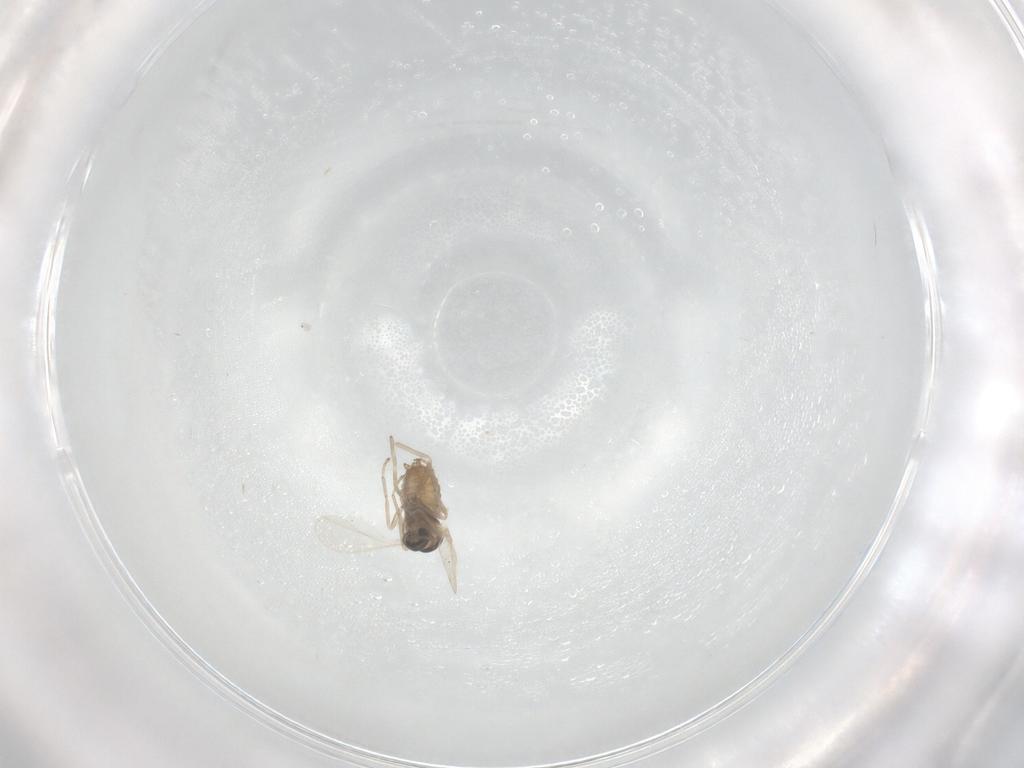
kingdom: Animalia
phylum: Arthropoda
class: Insecta
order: Diptera
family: Cecidomyiidae
